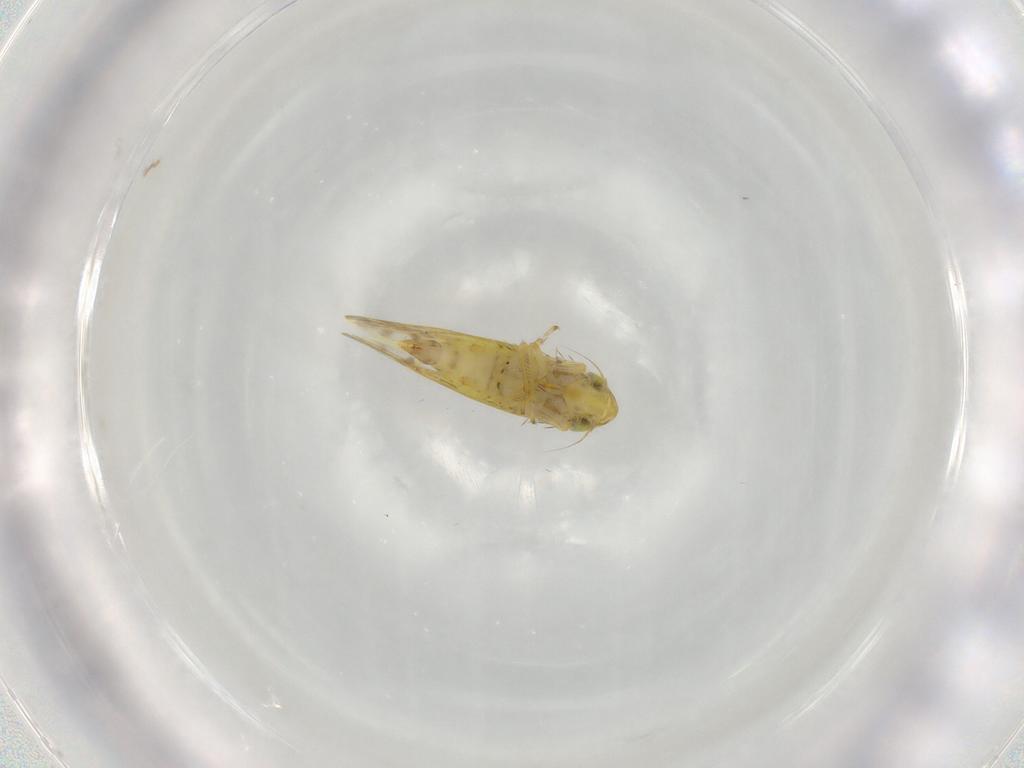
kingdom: Animalia
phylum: Arthropoda
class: Insecta
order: Hemiptera
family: Cicadellidae
